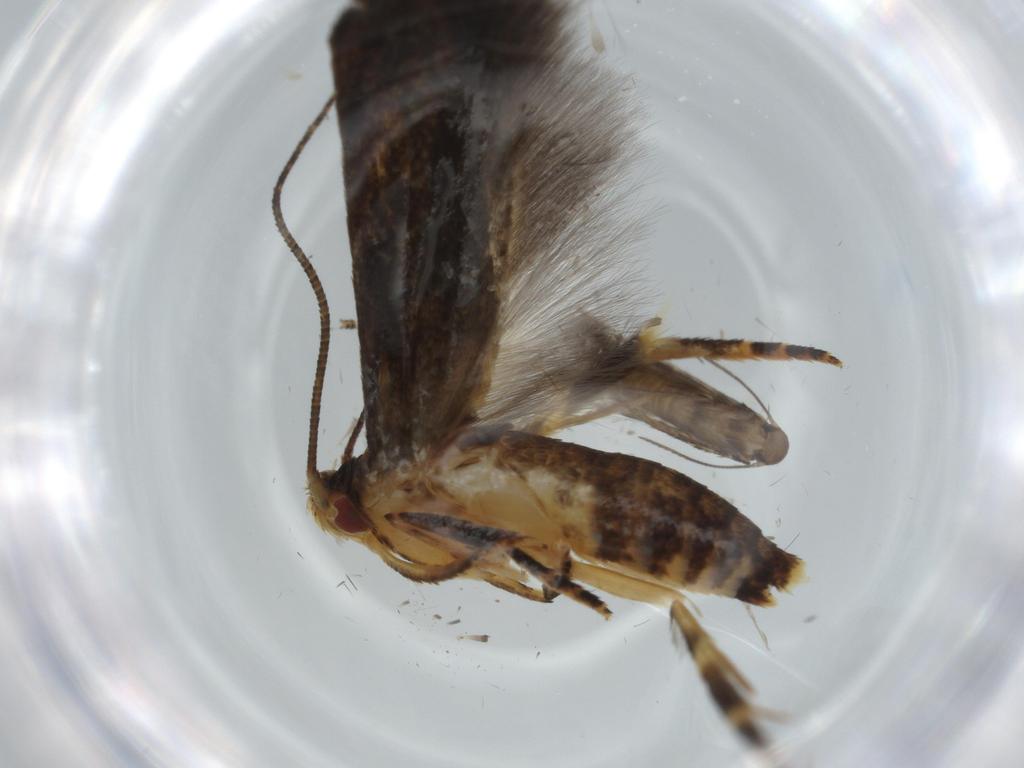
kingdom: Animalia
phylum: Arthropoda
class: Insecta
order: Lepidoptera
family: Momphidae
